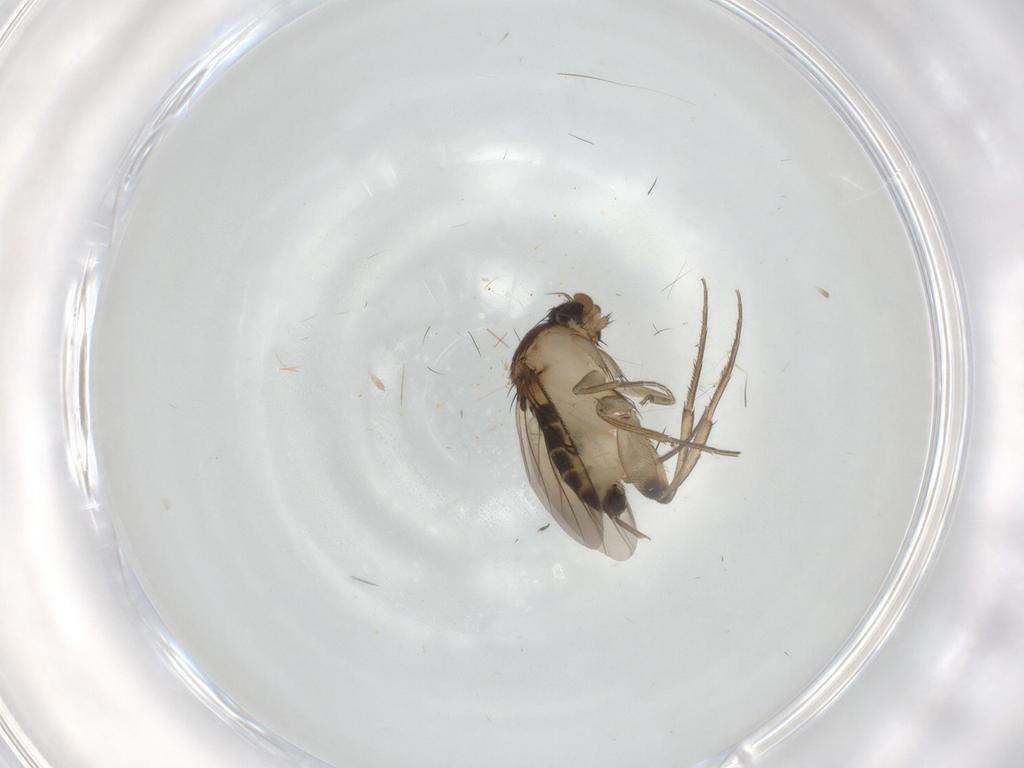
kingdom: Animalia
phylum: Arthropoda
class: Insecta
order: Diptera
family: Phoridae
